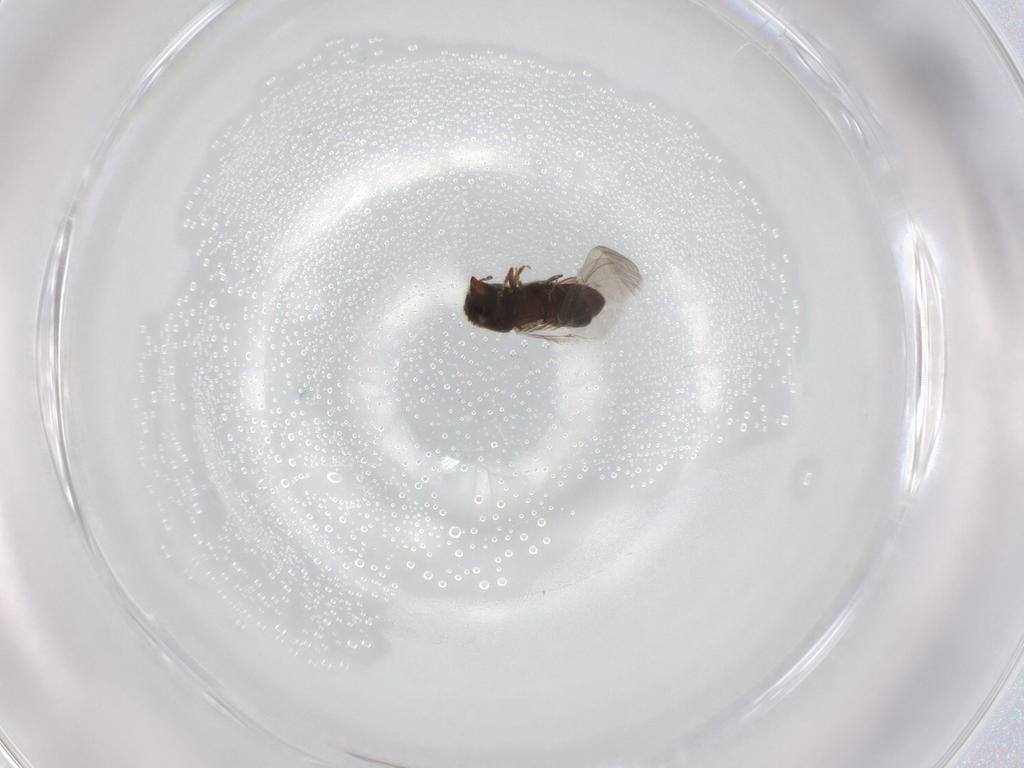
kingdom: Animalia
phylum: Arthropoda
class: Insecta
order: Coleoptera
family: Curculionidae
